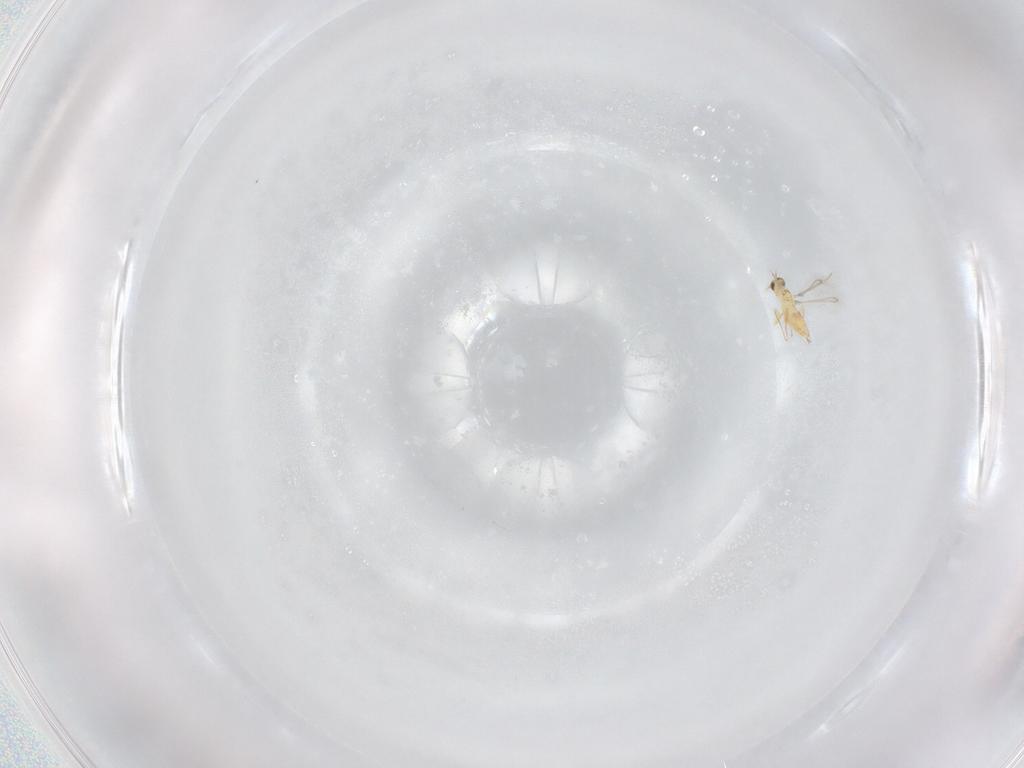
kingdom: Animalia
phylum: Arthropoda
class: Insecta
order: Hymenoptera
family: Mymaridae
